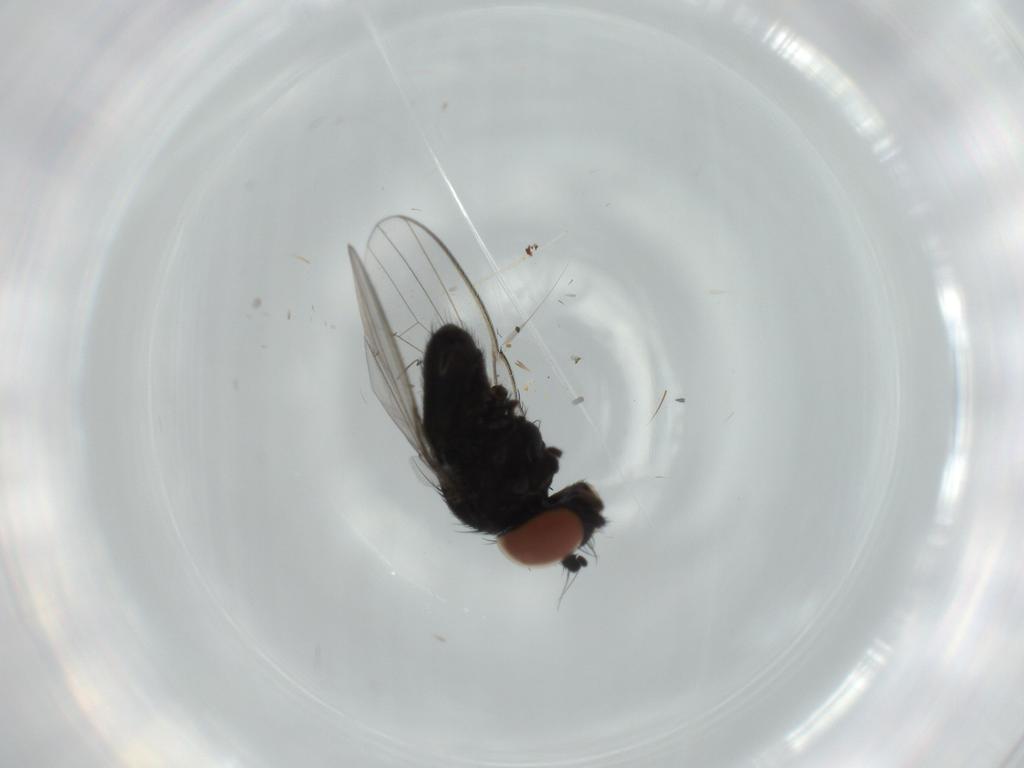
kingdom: Animalia
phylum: Arthropoda
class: Insecta
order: Diptera
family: Milichiidae
